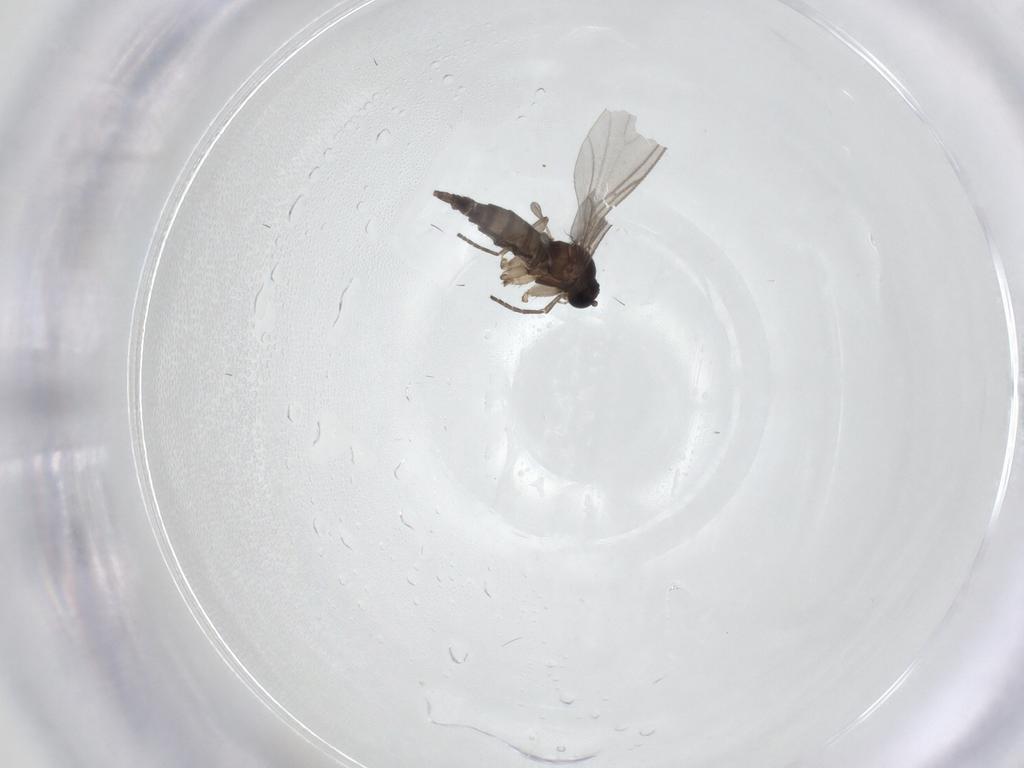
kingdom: Animalia
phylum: Arthropoda
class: Insecta
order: Diptera
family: Sciaridae
